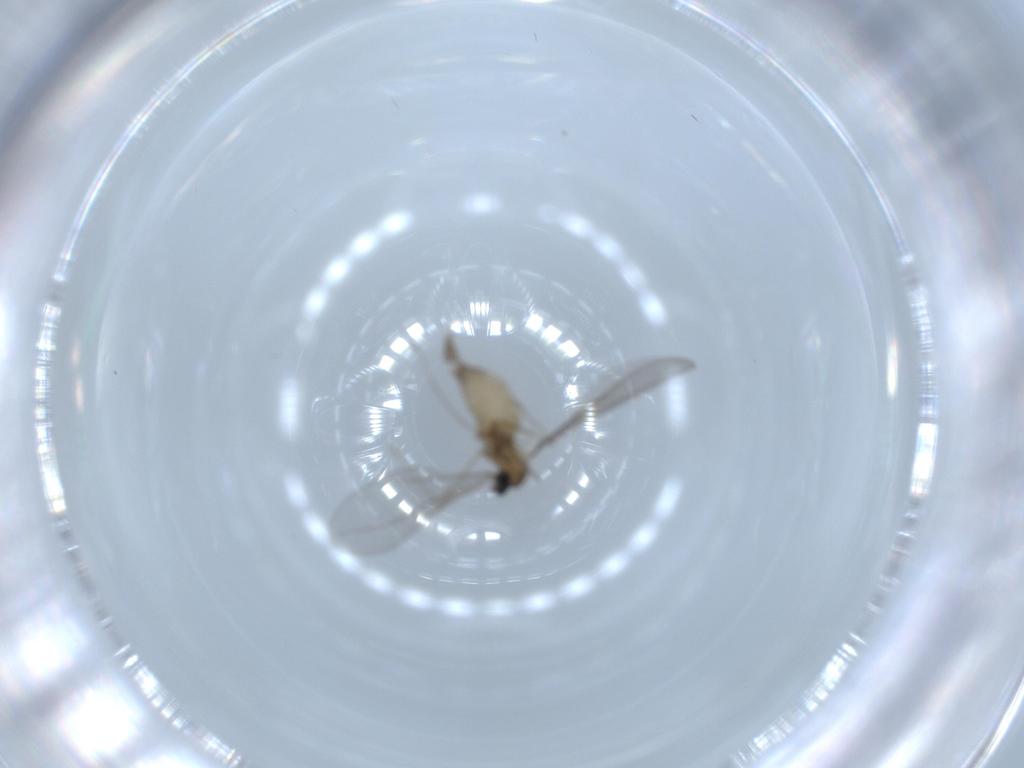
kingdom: Animalia
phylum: Arthropoda
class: Insecta
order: Diptera
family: Cecidomyiidae
